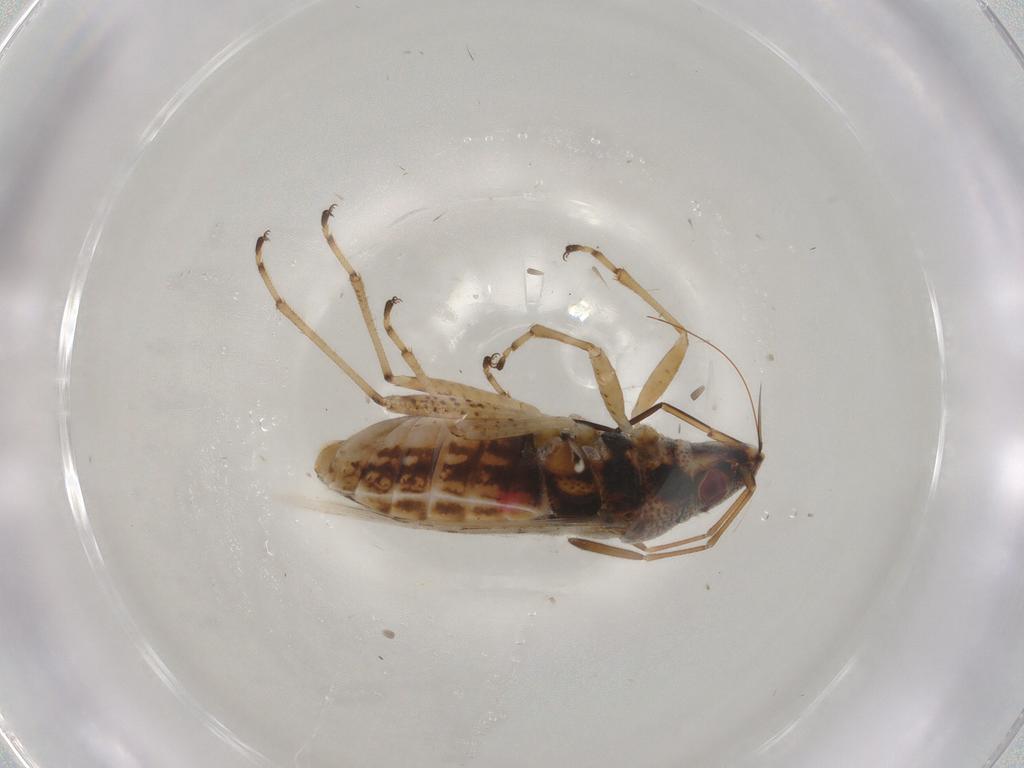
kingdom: Animalia
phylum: Arthropoda
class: Insecta
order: Hemiptera
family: Lygaeidae
